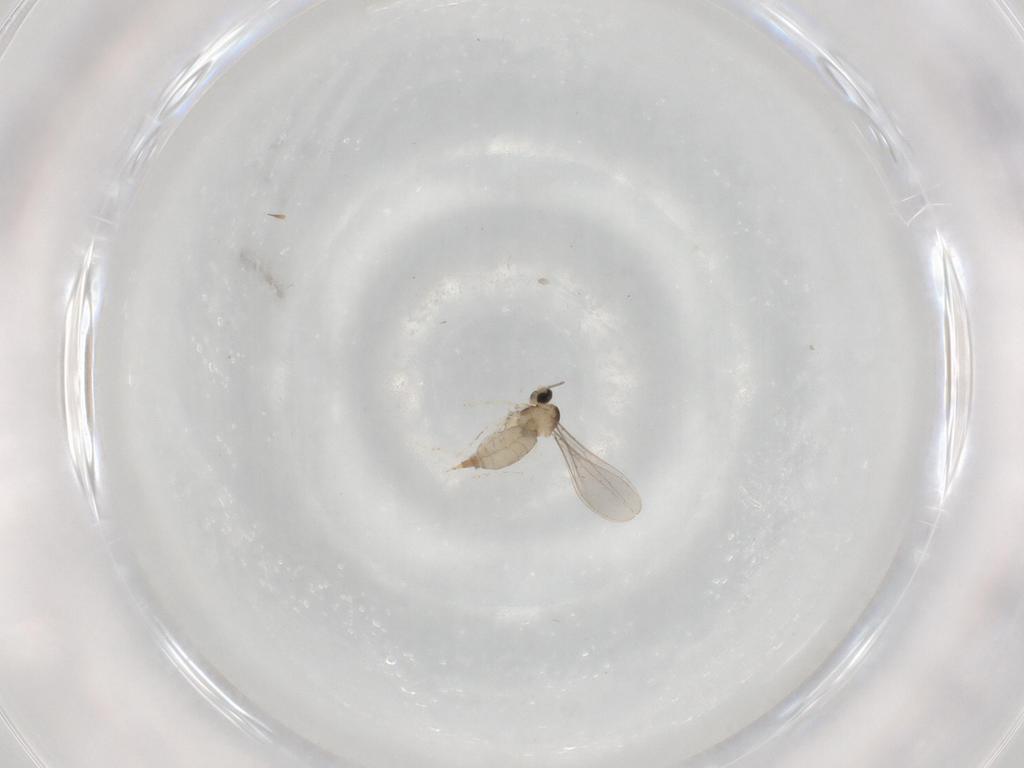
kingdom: Animalia
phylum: Arthropoda
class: Insecta
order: Diptera
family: Cecidomyiidae
